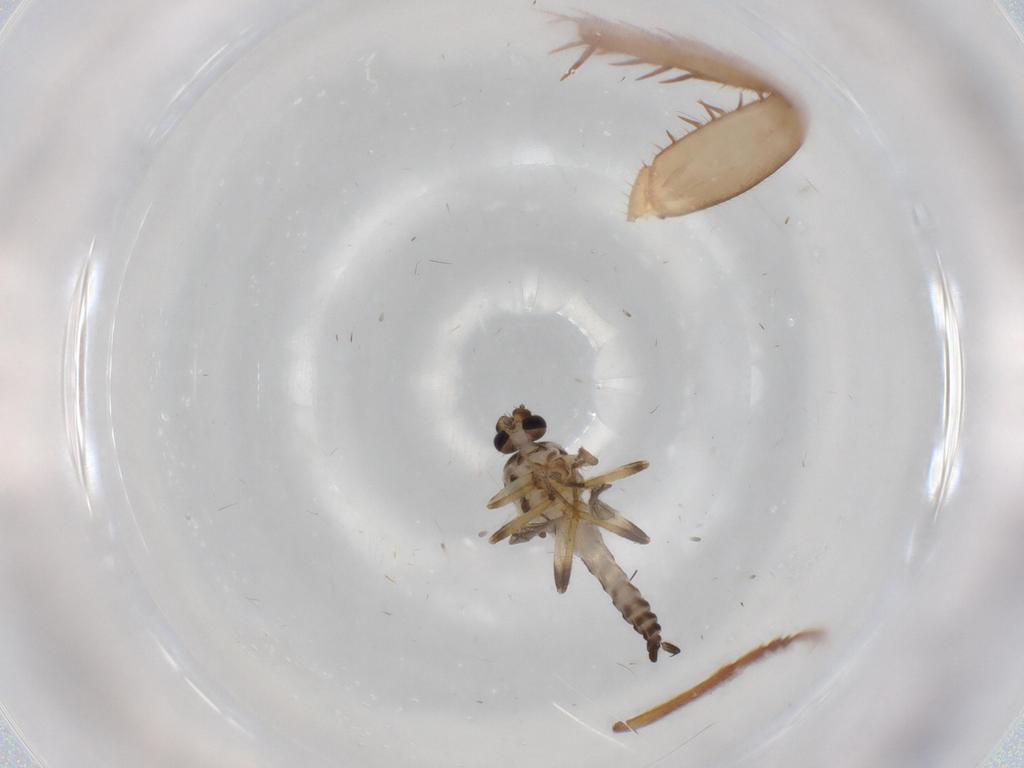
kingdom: Animalia
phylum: Arthropoda
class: Insecta
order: Diptera
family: Ceratopogonidae
